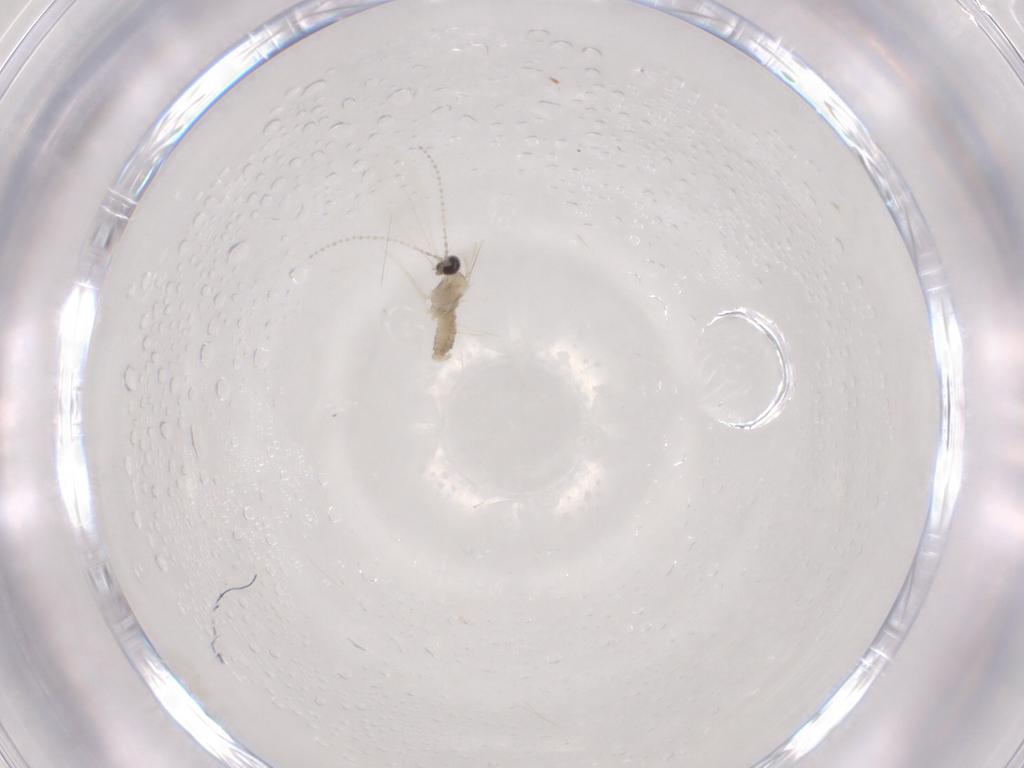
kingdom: Animalia
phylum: Arthropoda
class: Insecta
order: Diptera
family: Cecidomyiidae
